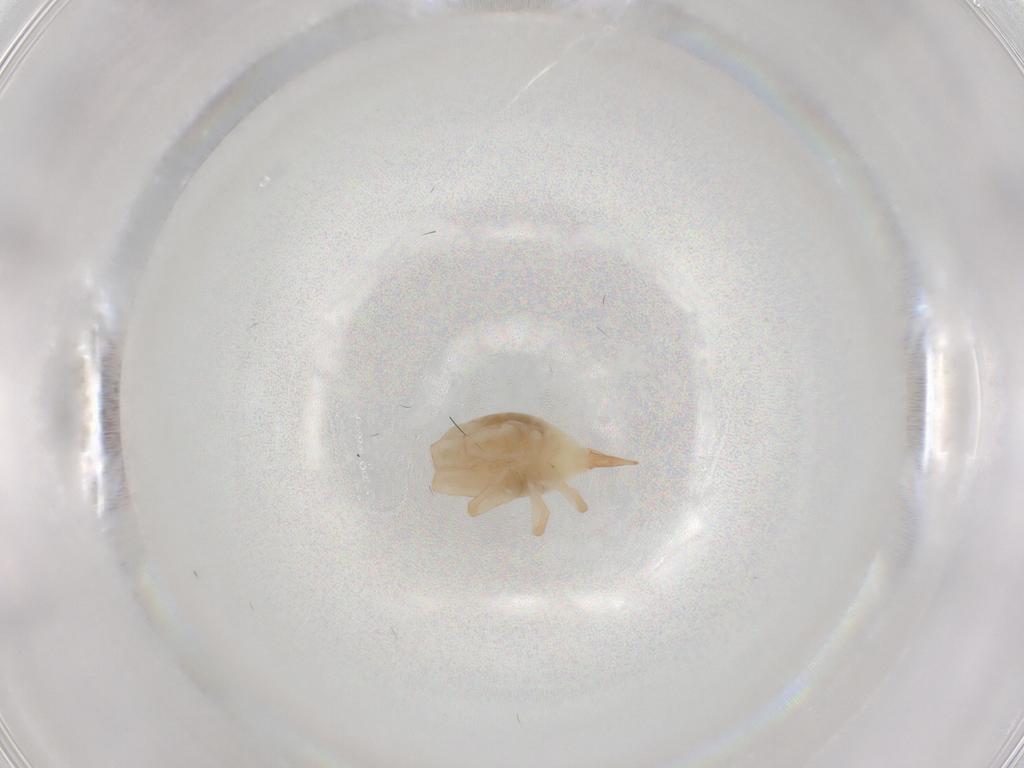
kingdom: Animalia
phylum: Arthropoda
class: Arachnida
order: Trombidiformes
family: Bdellidae
